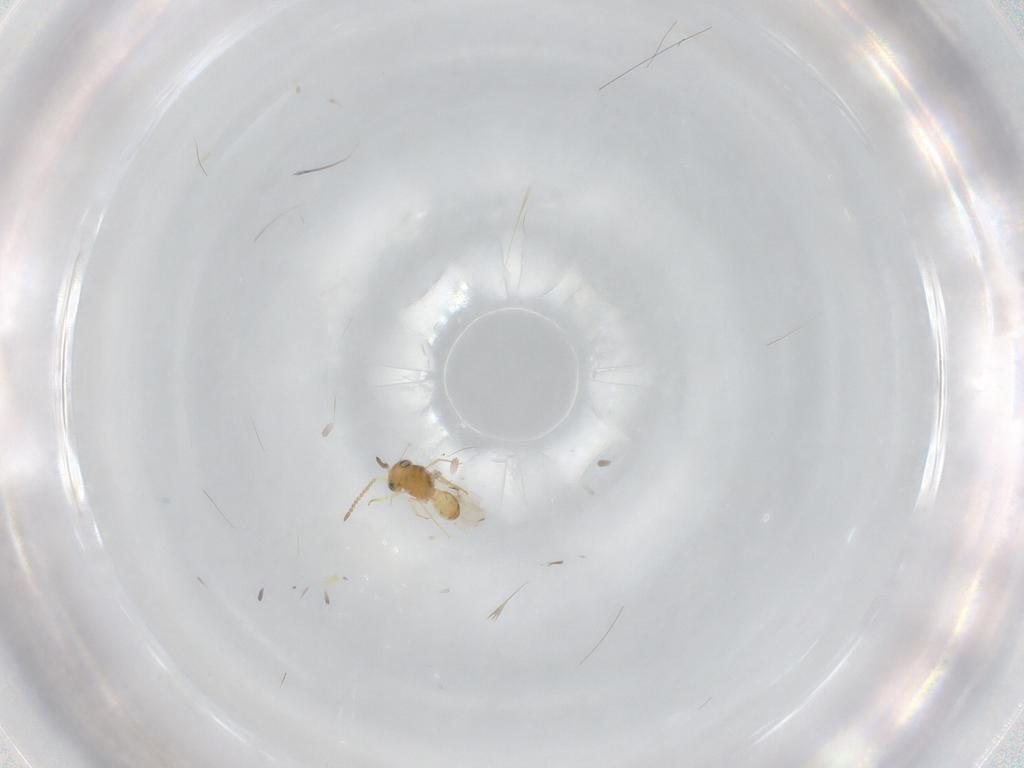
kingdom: Animalia
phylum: Arthropoda
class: Insecta
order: Hymenoptera
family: Scelionidae
